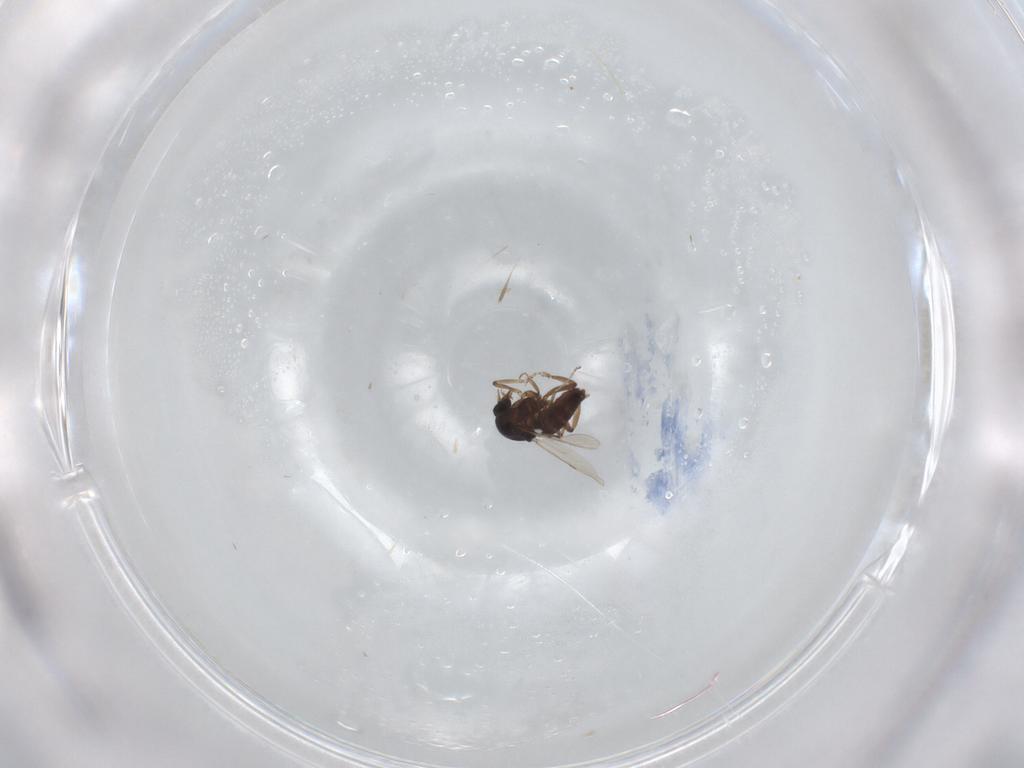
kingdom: Animalia
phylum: Arthropoda
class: Insecta
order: Diptera
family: Ceratopogonidae
